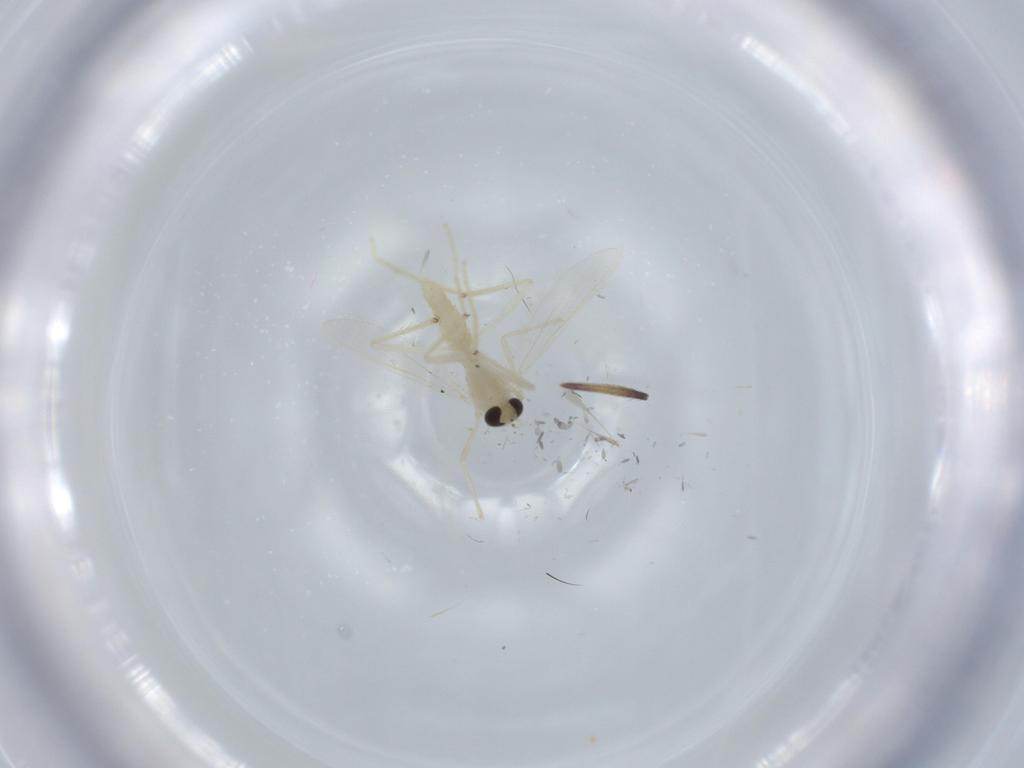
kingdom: Animalia
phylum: Arthropoda
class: Insecta
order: Diptera
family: Chironomidae
